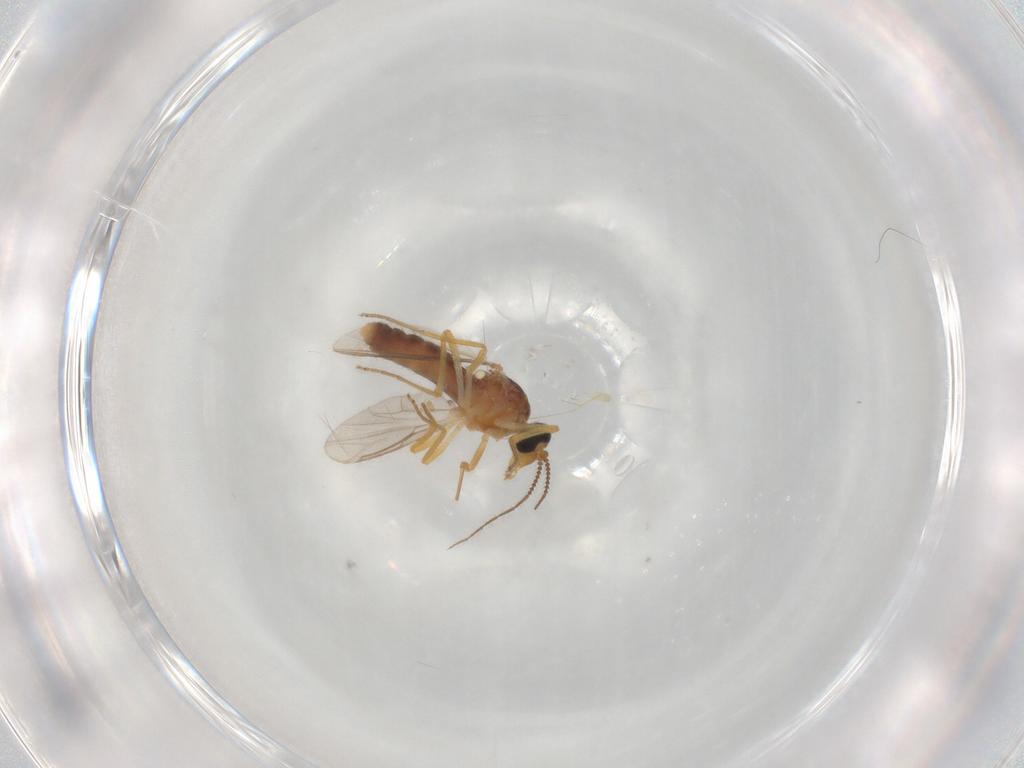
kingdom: Animalia
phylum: Arthropoda
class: Insecta
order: Diptera
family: Ceratopogonidae
